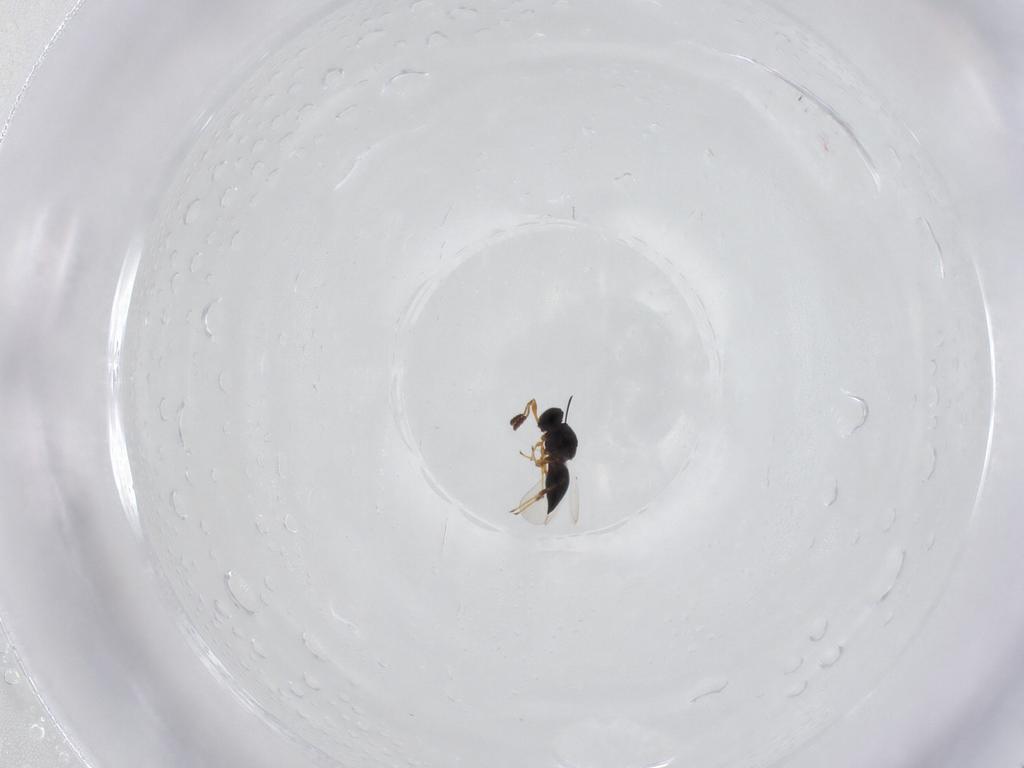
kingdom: Animalia
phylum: Arthropoda
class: Insecta
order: Hymenoptera
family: Platygastridae
